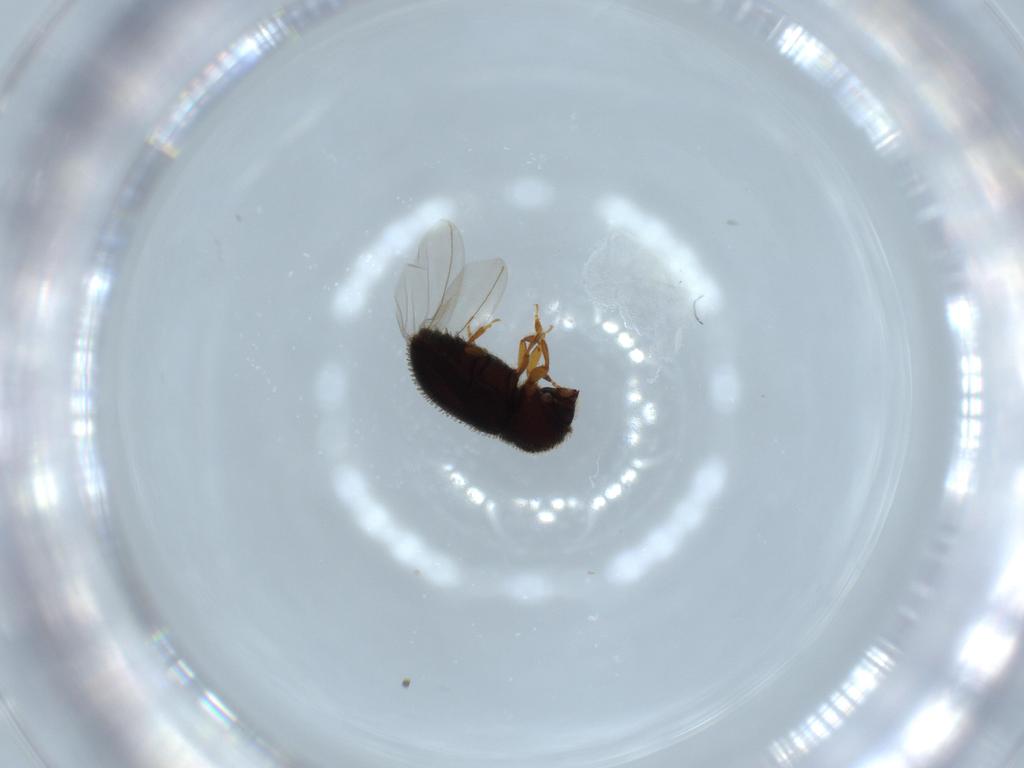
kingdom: Animalia
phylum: Arthropoda
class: Insecta
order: Coleoptera
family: Curculionidae
